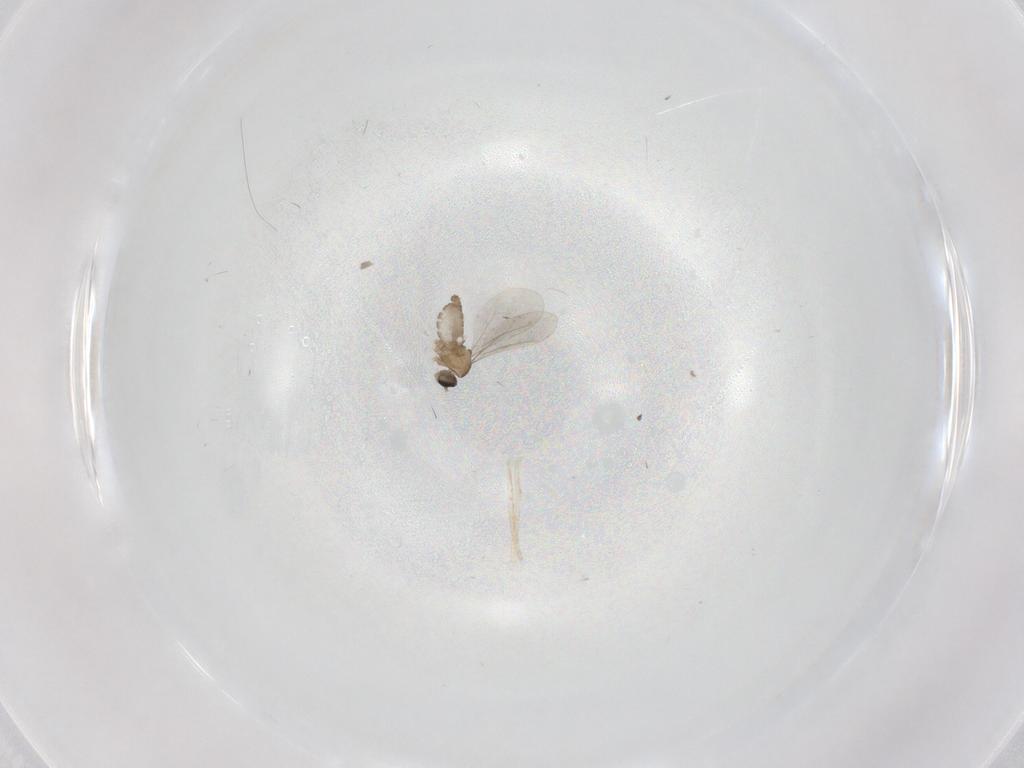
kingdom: Animalia
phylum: Arthropoda
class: Insecta
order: Diptera
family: Cecidomyiidae
